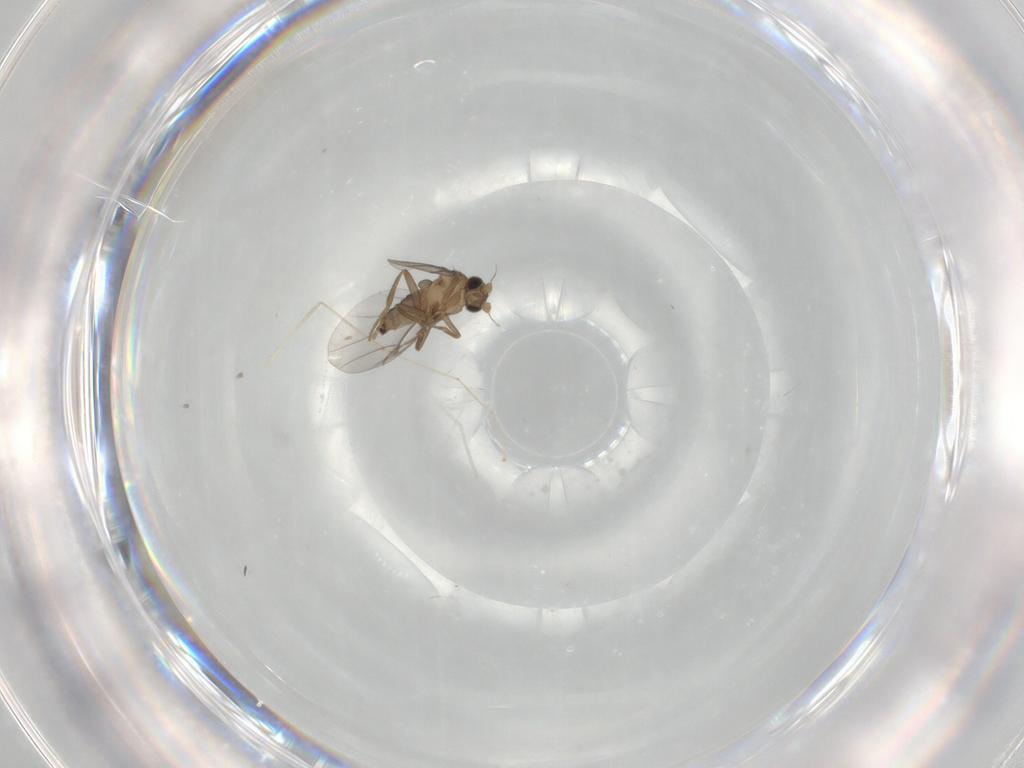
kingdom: Animalia
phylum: Arthropoda
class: Insecta
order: Diptera
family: Cecidomyiidae
